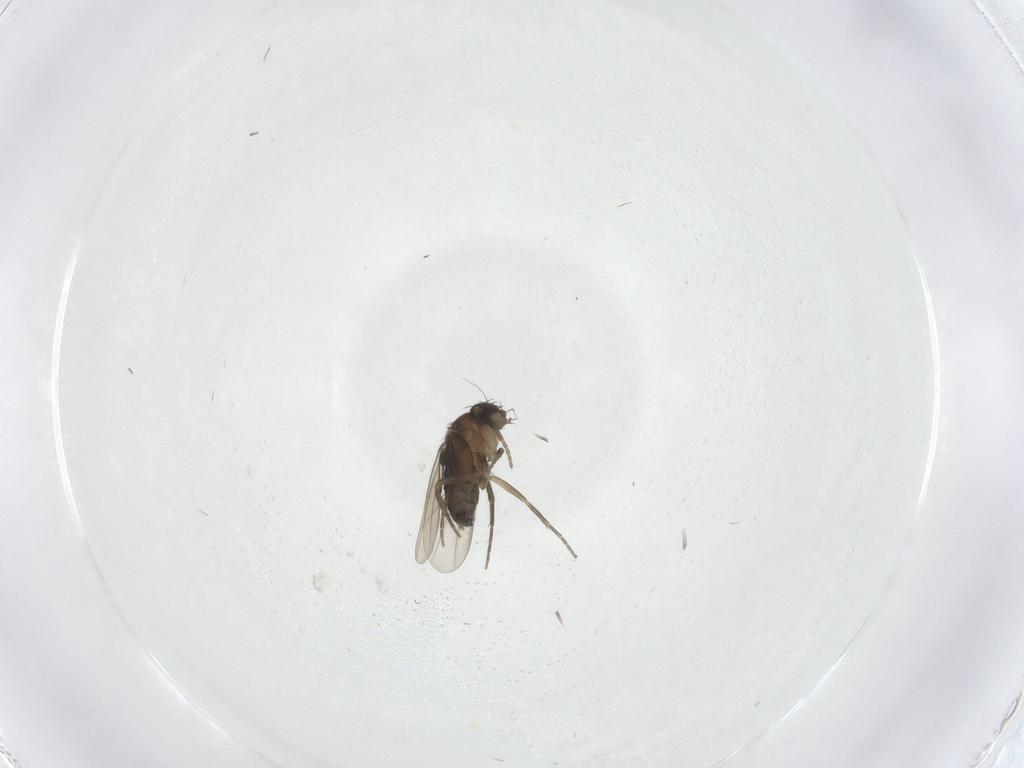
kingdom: Animalia
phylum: Arthropoda
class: Insecta
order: Diptera
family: Phoridae
